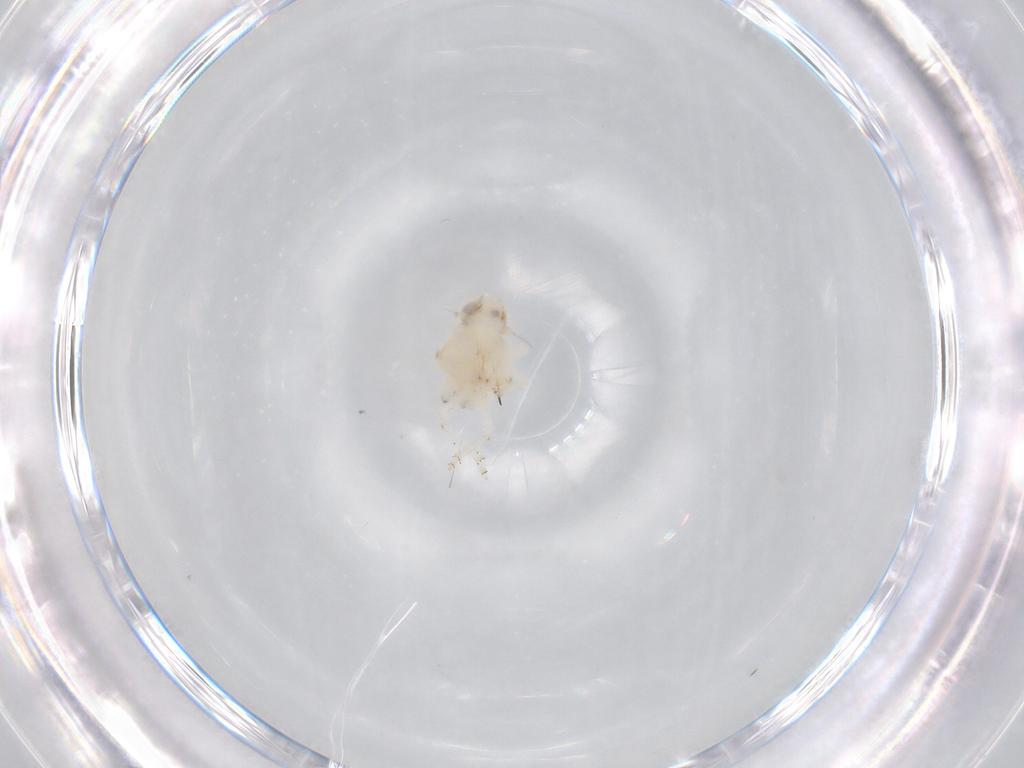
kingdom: Animalia
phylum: Arthropoda
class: Insecta
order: Hemiptera
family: Nogodinidae
